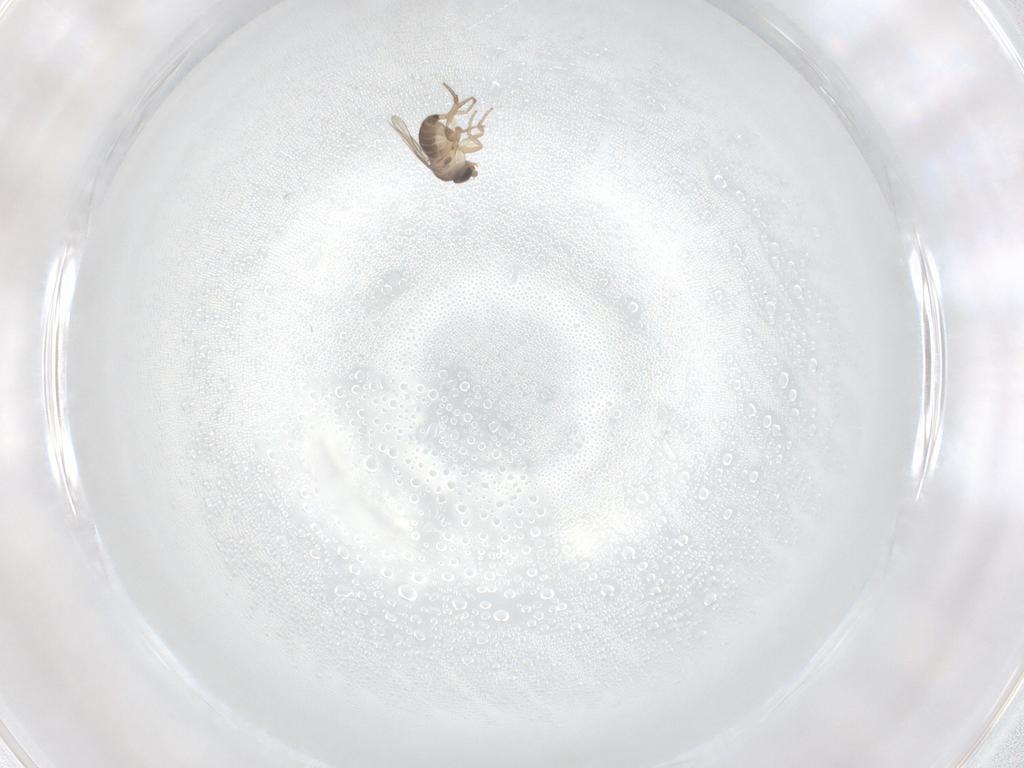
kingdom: Animalia
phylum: Arthropoda
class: Insecta
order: Diptera
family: Phoridae
